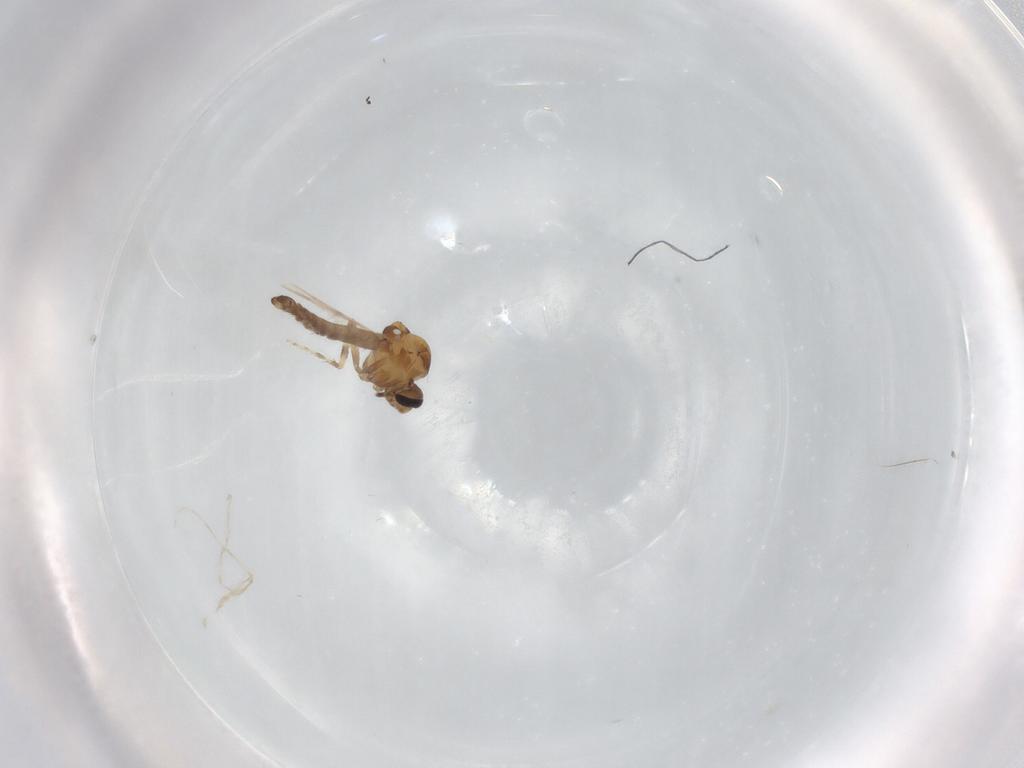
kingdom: Animalia
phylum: Arthropoda
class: Insecta
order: Diptera
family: Ceratopogonidae
